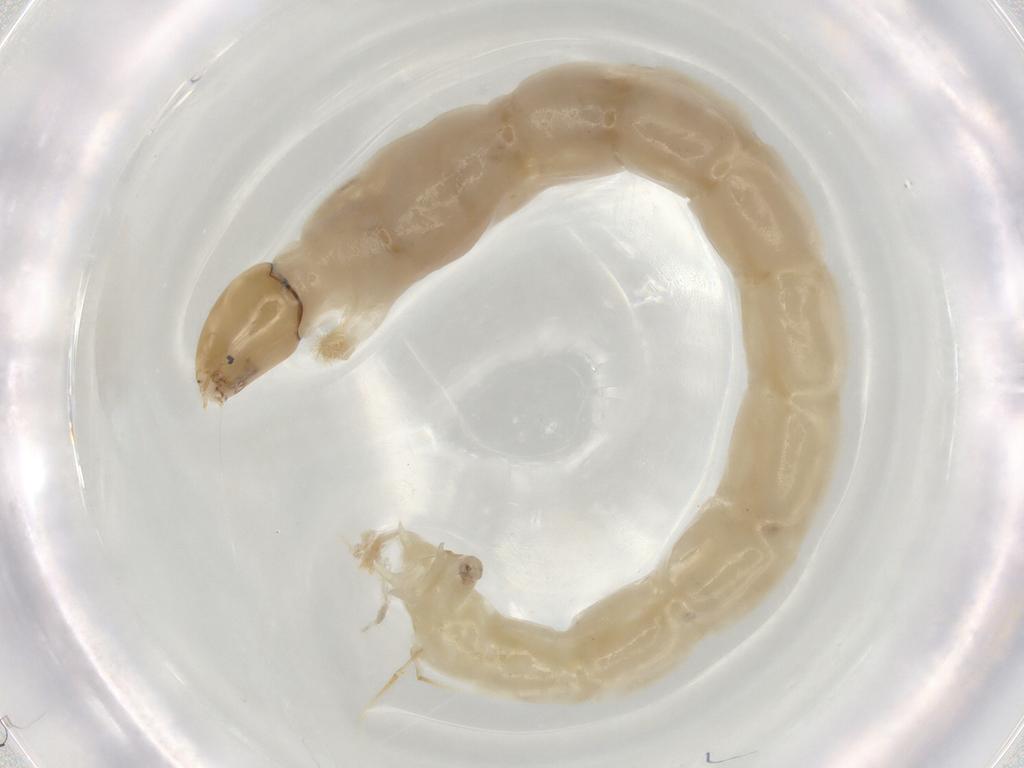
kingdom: Animalia
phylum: Arthropoda
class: Insecta
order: Diptera
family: Chironomidae
